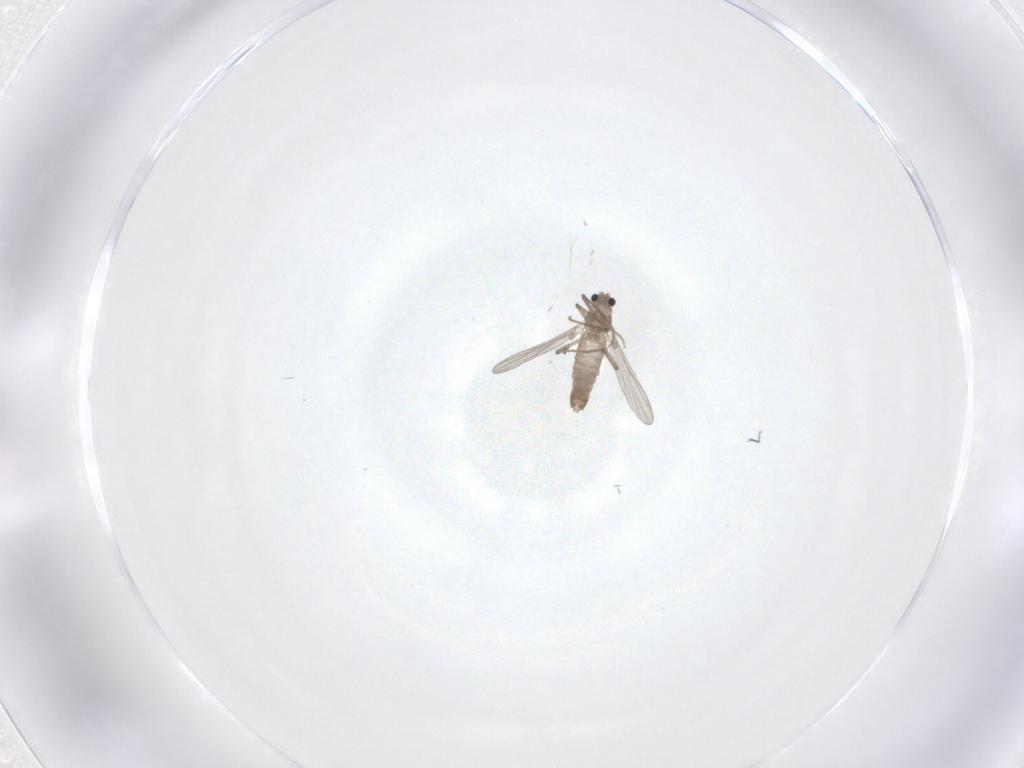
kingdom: Animalia
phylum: Arthropoda
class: Insecta
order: Diptera
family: Chironomidae
